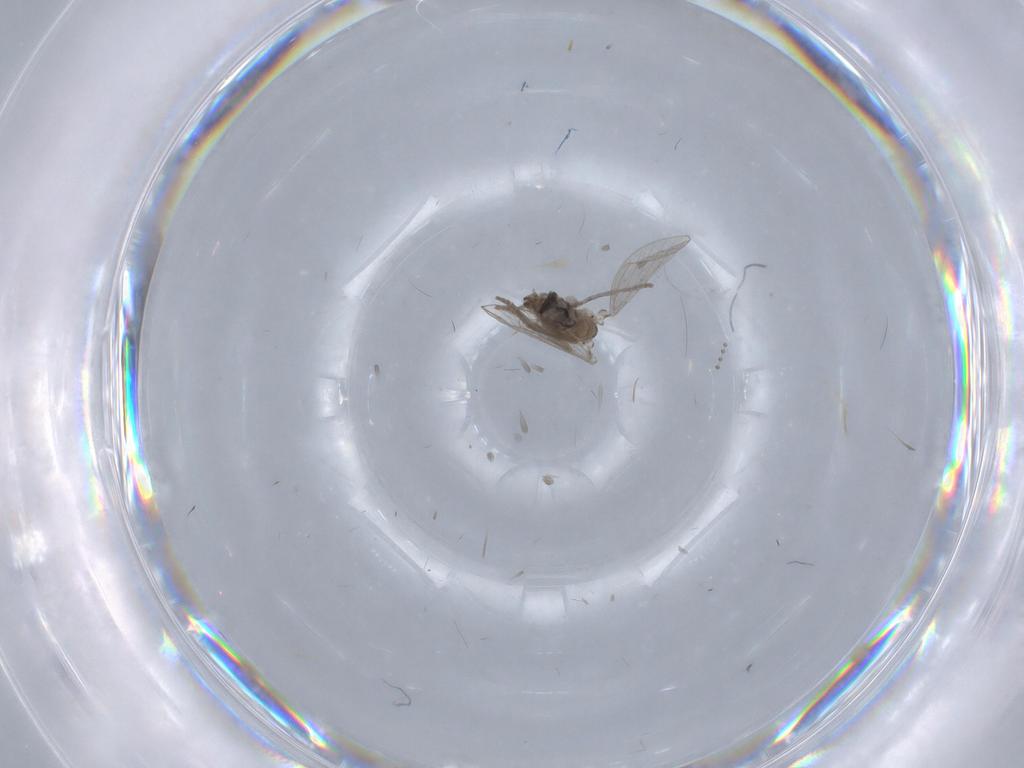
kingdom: Animalia
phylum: Arthropoda
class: Insecta
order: Diptera
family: Psychodidae
